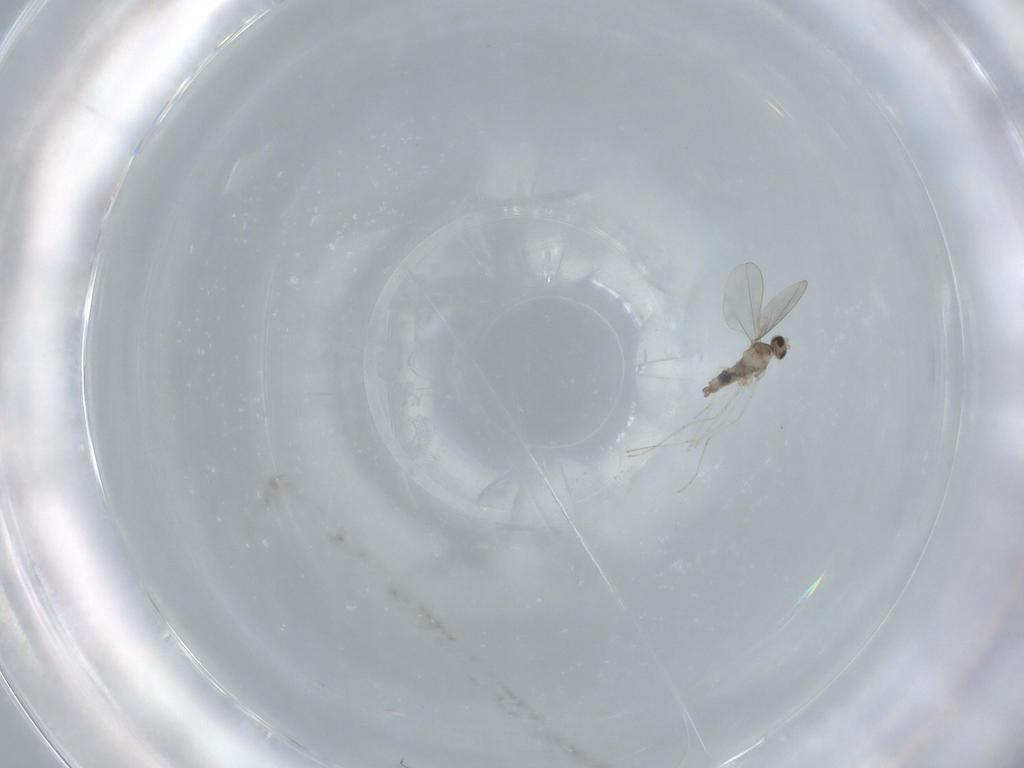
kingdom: Animalia
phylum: Arthropoda
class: Insecta
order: Diptera
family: Cecidomyiidae
